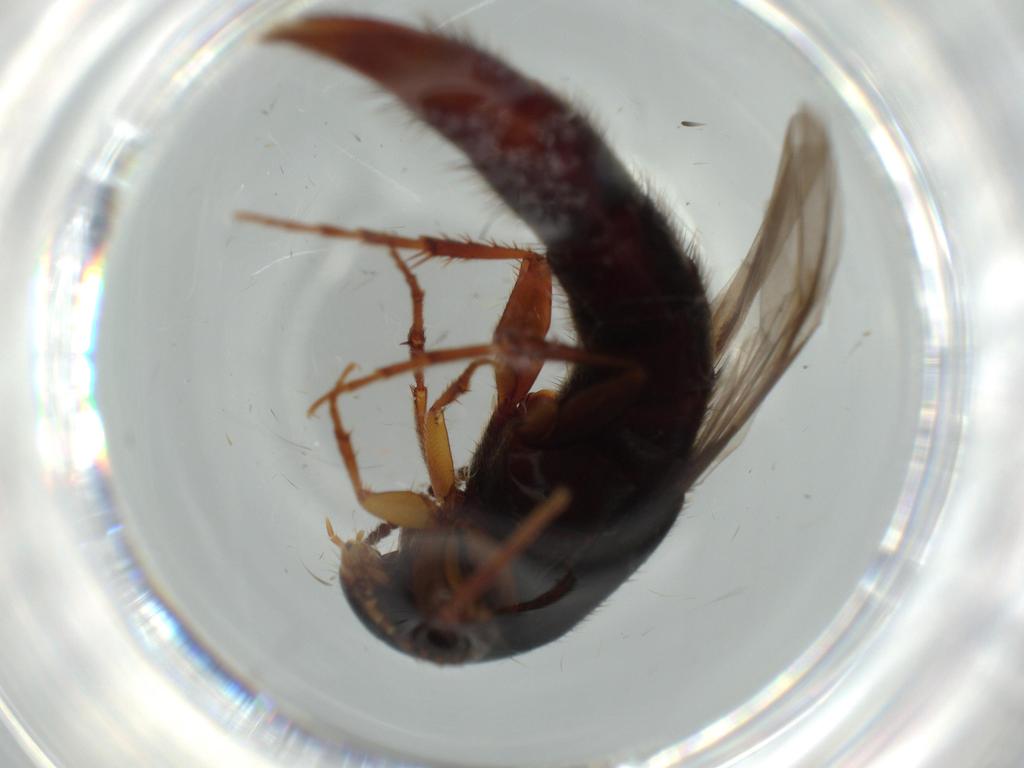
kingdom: Animalia
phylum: Arthropoda
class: Insecta
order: Coleoptera
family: Staphylinidae
